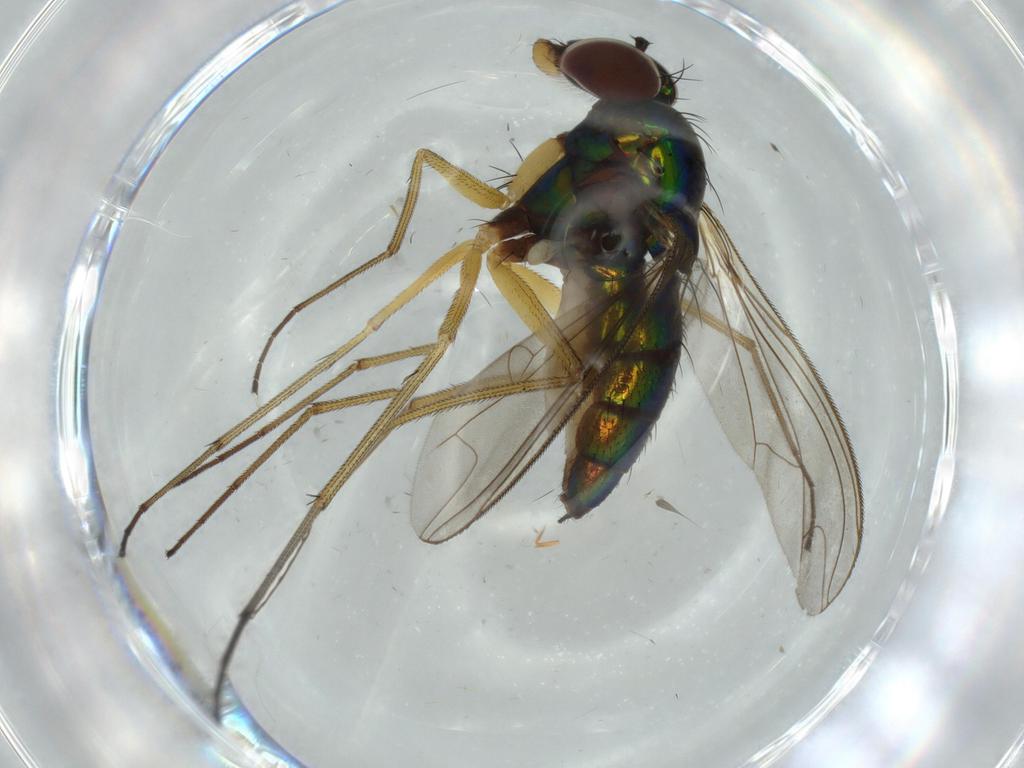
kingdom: Animalia
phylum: Arthropoda
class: Insecta
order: Diptera
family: Dolichopodidae
